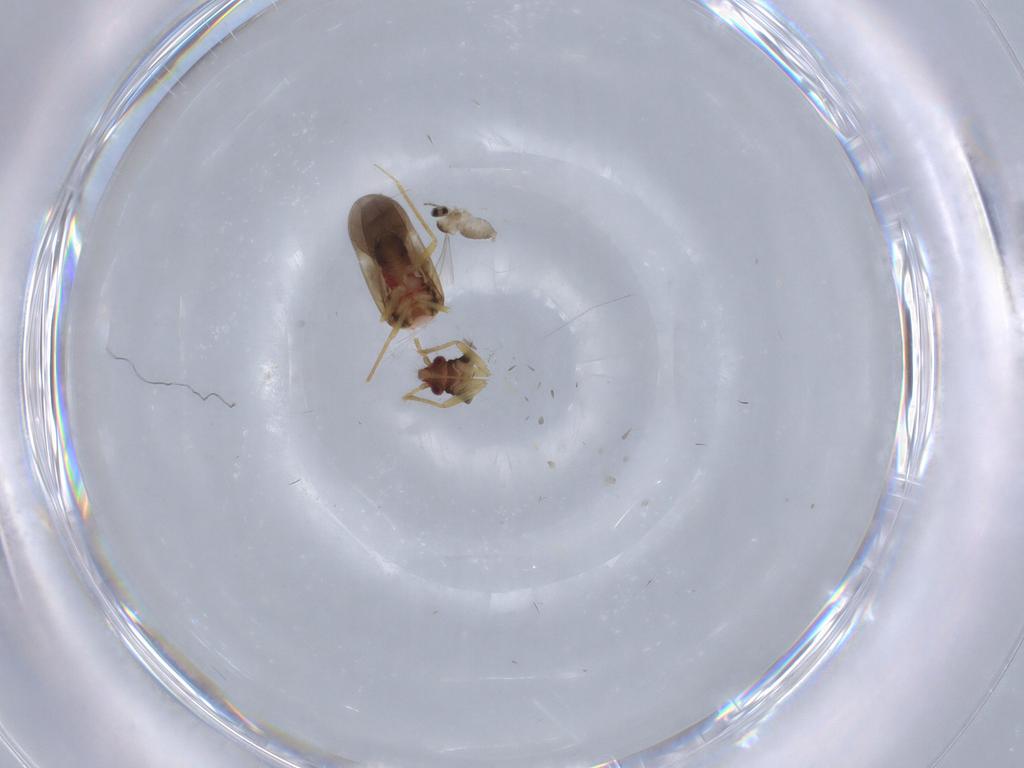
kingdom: Animalia
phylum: Arthropoda
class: Insecta
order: Hemiptera
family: Ceratocombidae
